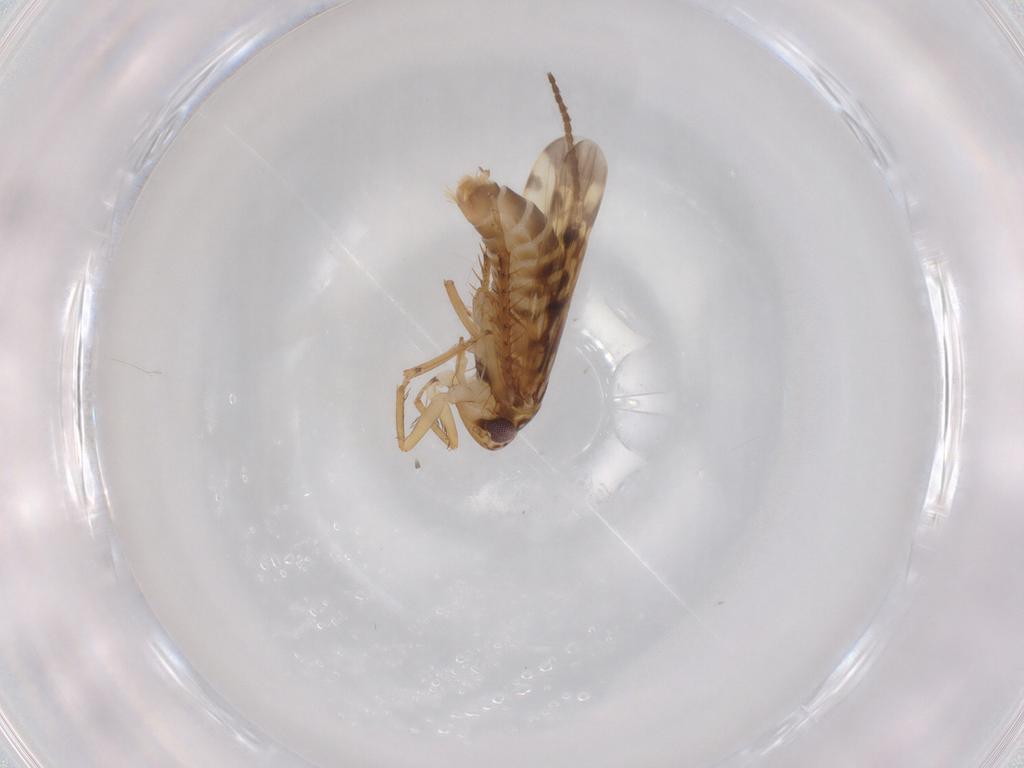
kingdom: Animalia
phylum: Arthropoda
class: Insecta
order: Hemiptera
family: Cicadellidae
